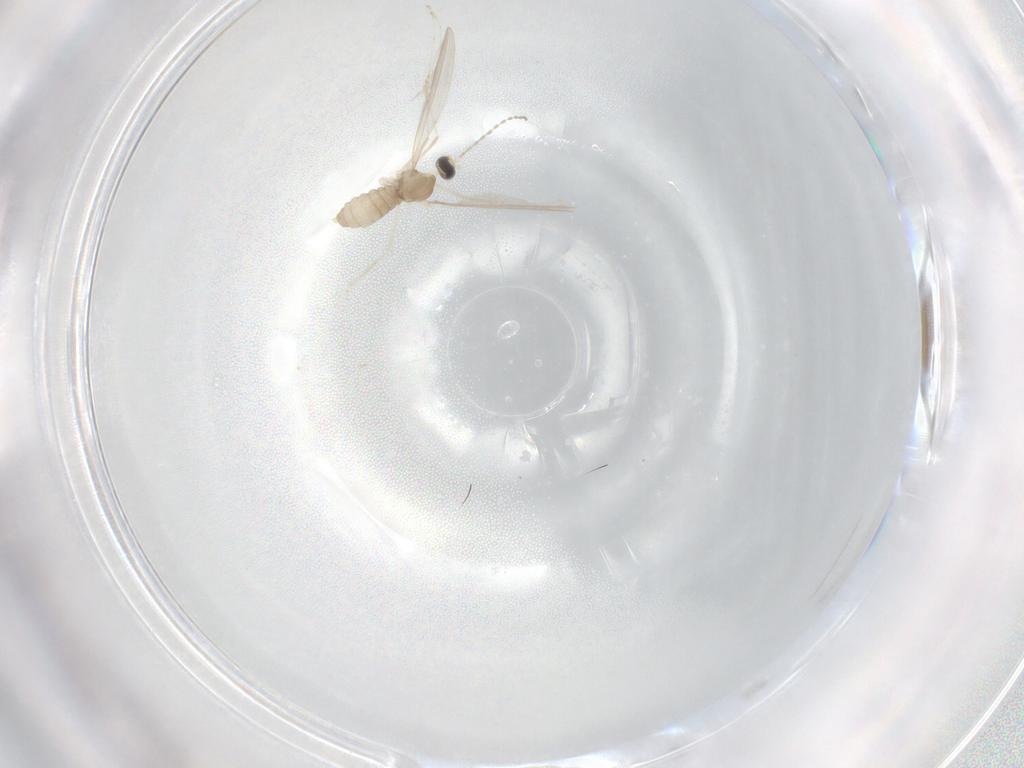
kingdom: Animalia
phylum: Arthropoda
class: Insecta
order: Diptera
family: Cecidomyiidae
